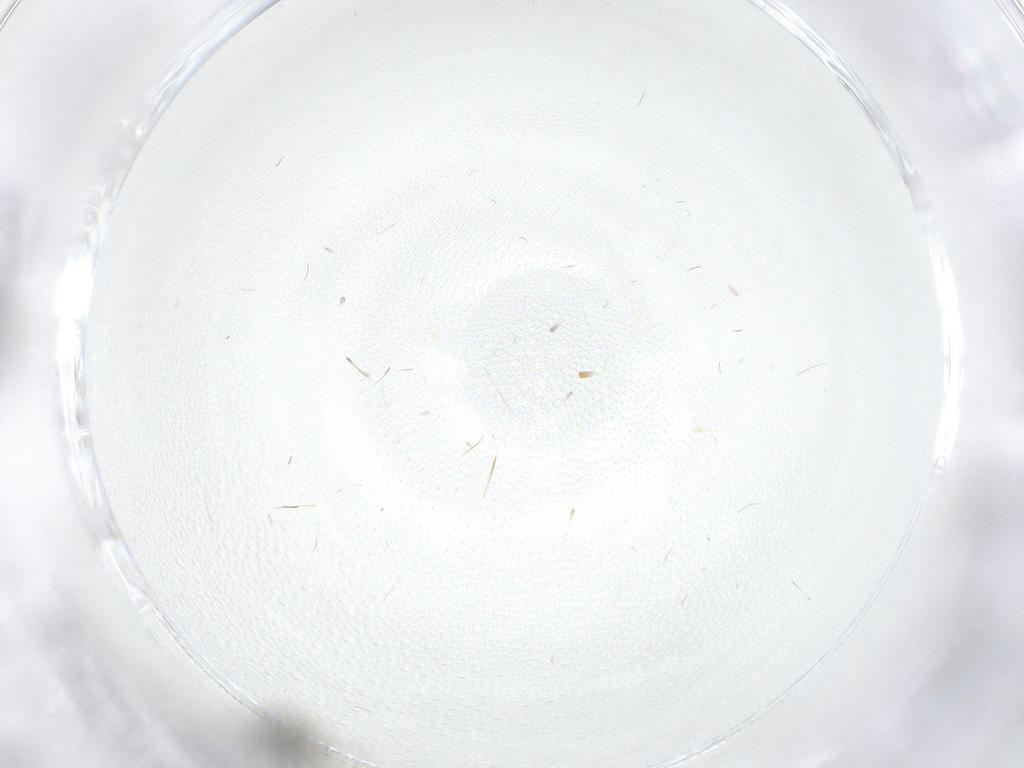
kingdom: Animalia
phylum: Arthropoda
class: Insecta
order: Diptera
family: Sciaridae
